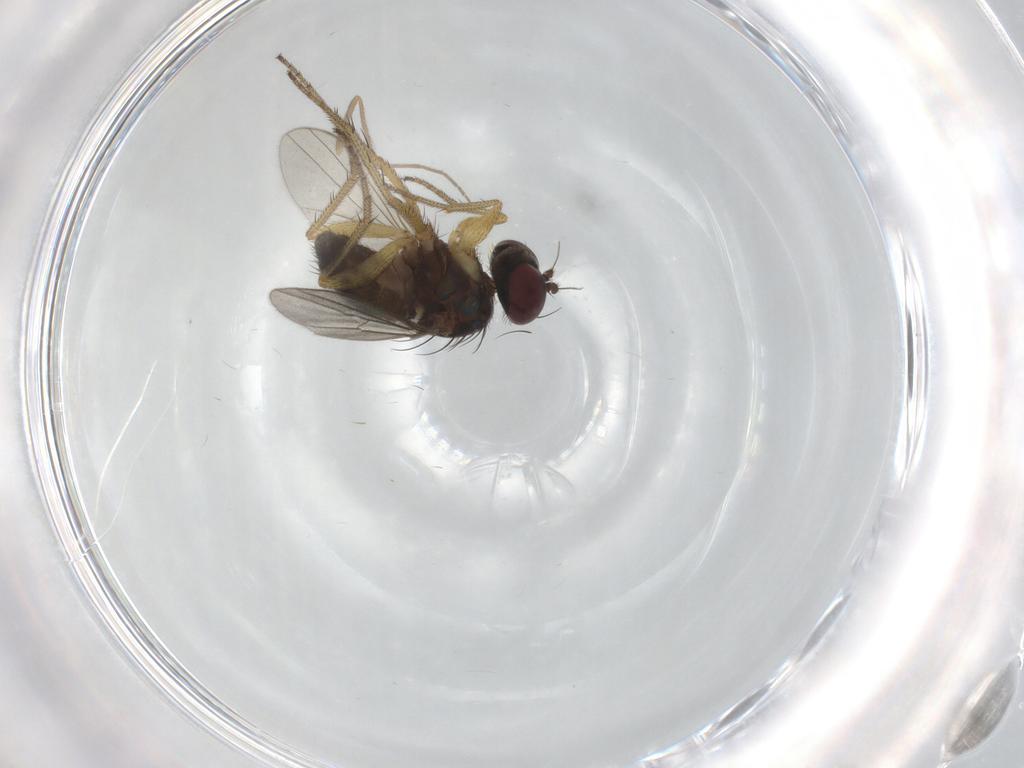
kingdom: Animalia
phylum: Arthropoda
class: Insecta
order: Diptera
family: Dolichopodidae
